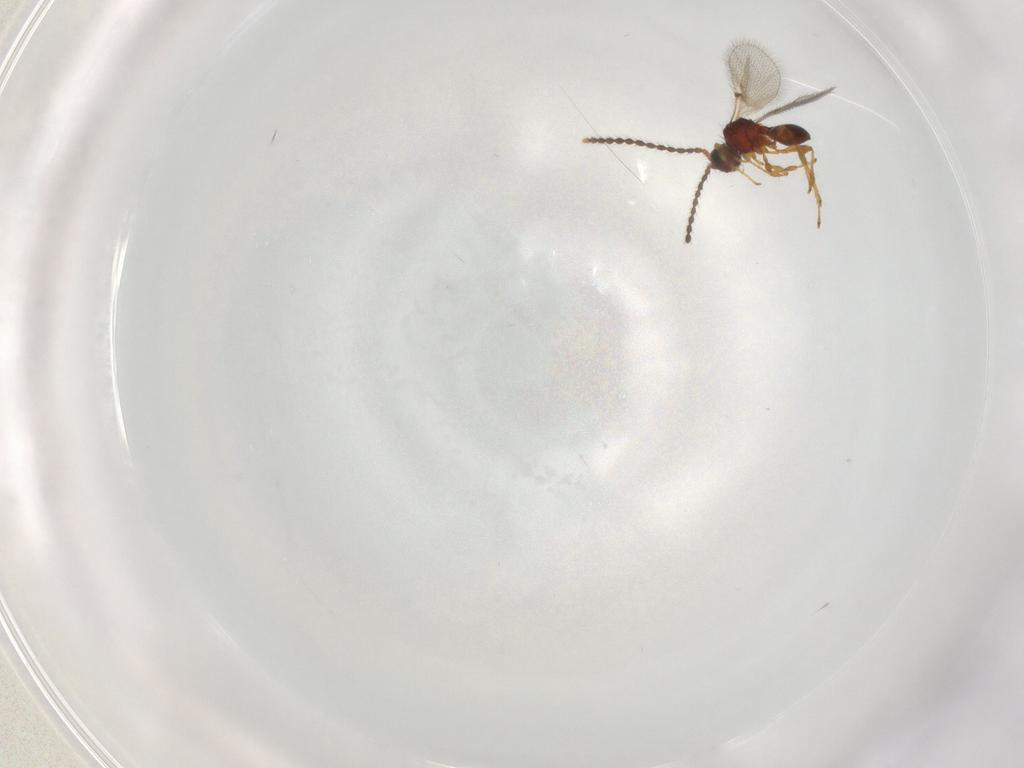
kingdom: Animalia
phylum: Arthropoda
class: Insecta
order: Hymenoptera
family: Diapriidae
